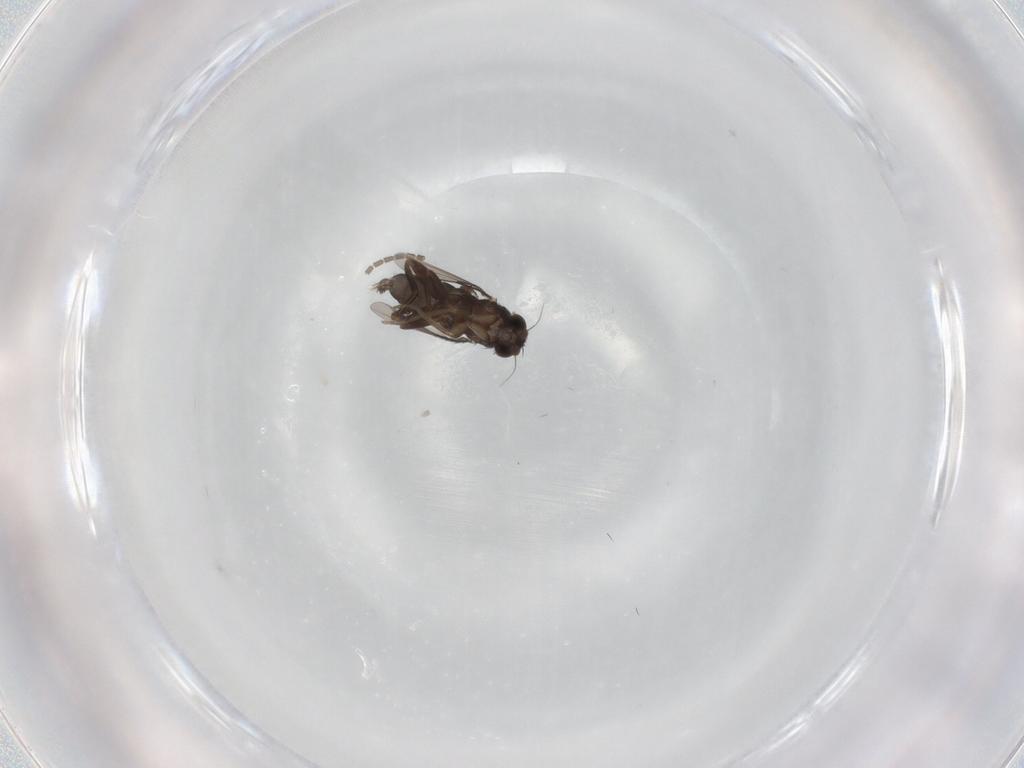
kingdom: Animalia
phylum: Arthropoda
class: Insecta
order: Diptera
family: Phoridae
